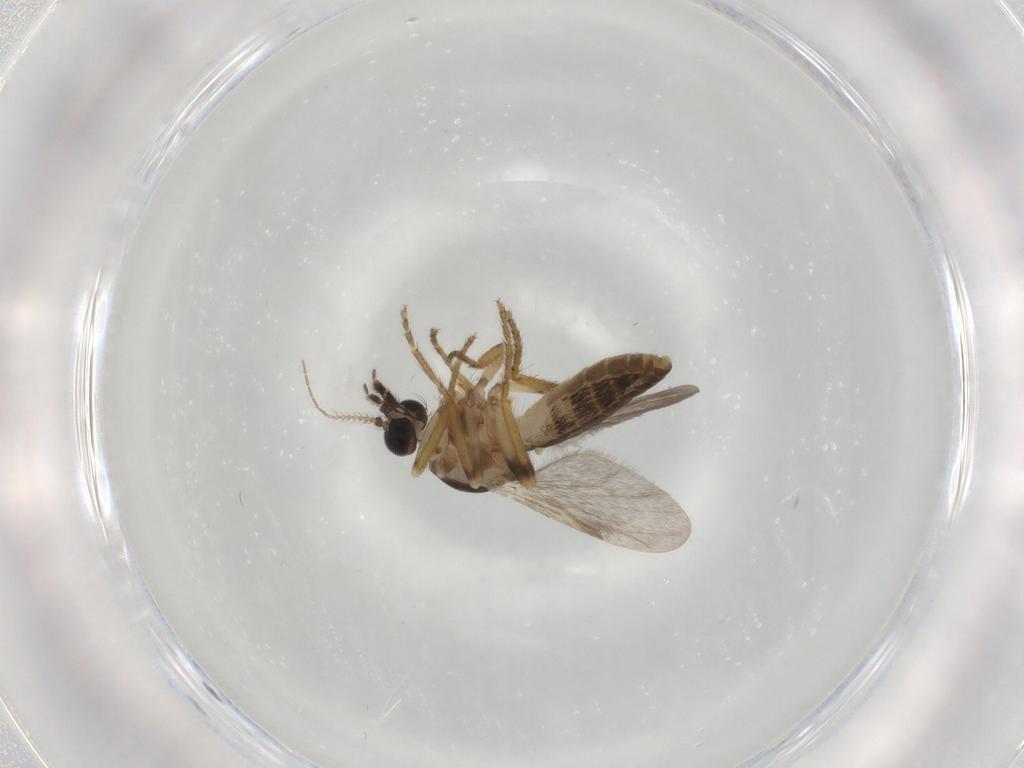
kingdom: Animalia
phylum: Arthropoda
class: Insecta
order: Diptera
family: Ceratopogonidae
